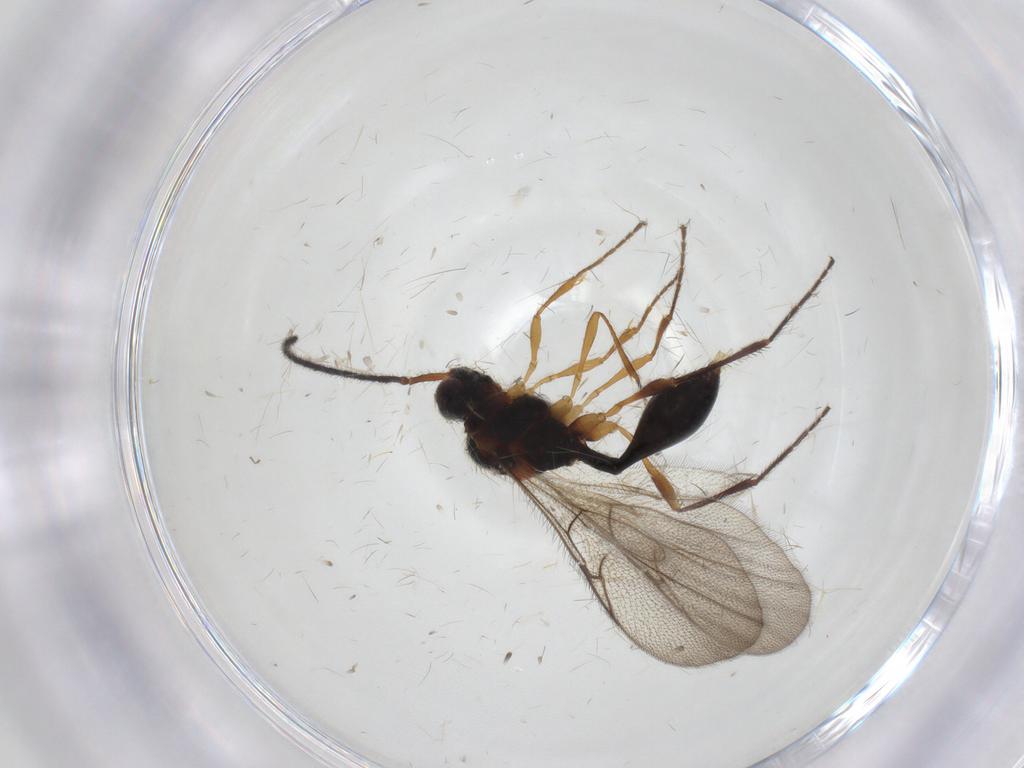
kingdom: Animalia
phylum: Arthropoda
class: Insecta
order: Hymenoptera
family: Diapriidae
